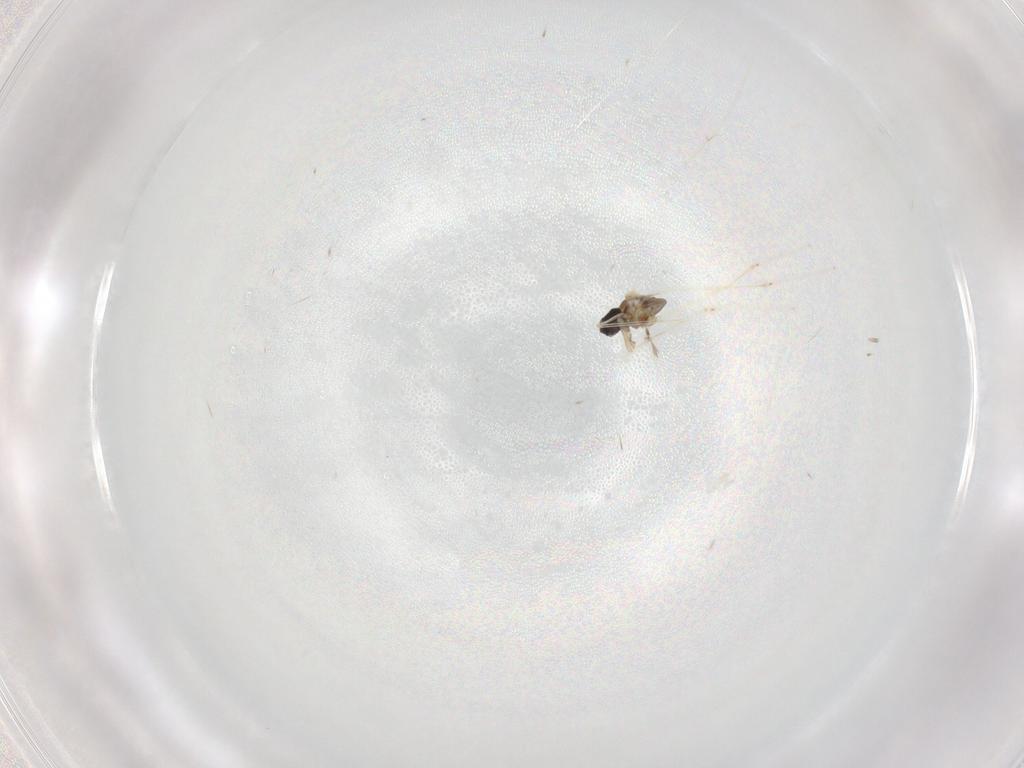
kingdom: Animalia
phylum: Arthropoda
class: Insecta
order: Diptera
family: Cecidomyiidae
